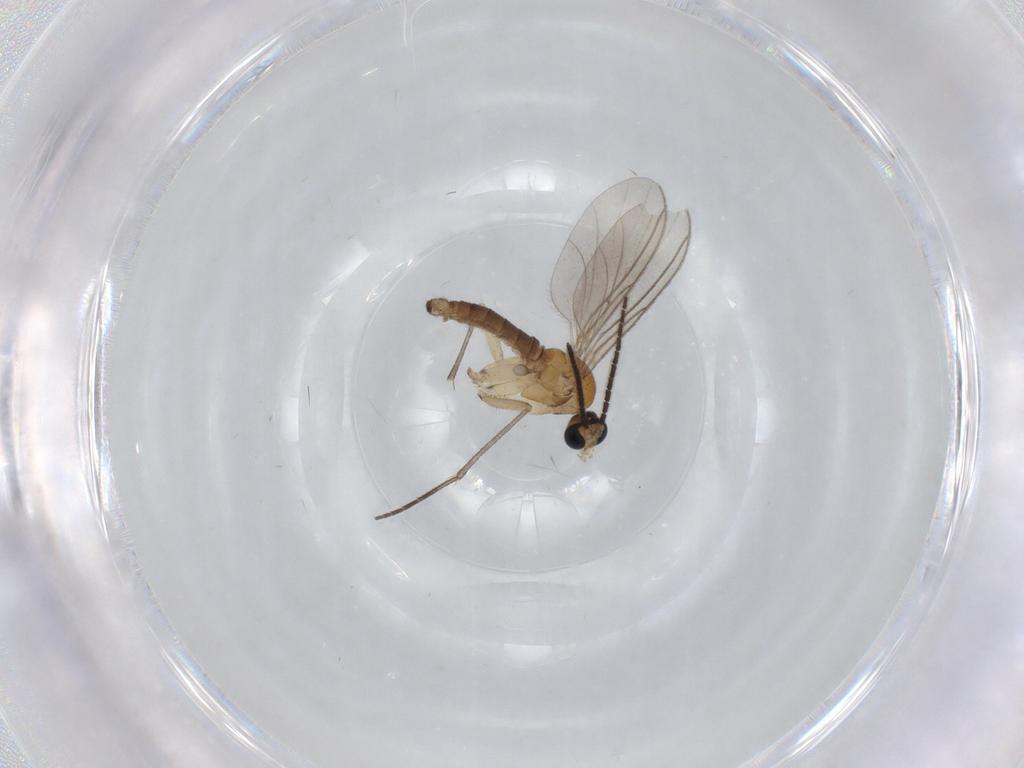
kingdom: Animalia
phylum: Arthropoda
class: Insecta
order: Diptera
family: Sciaridae
